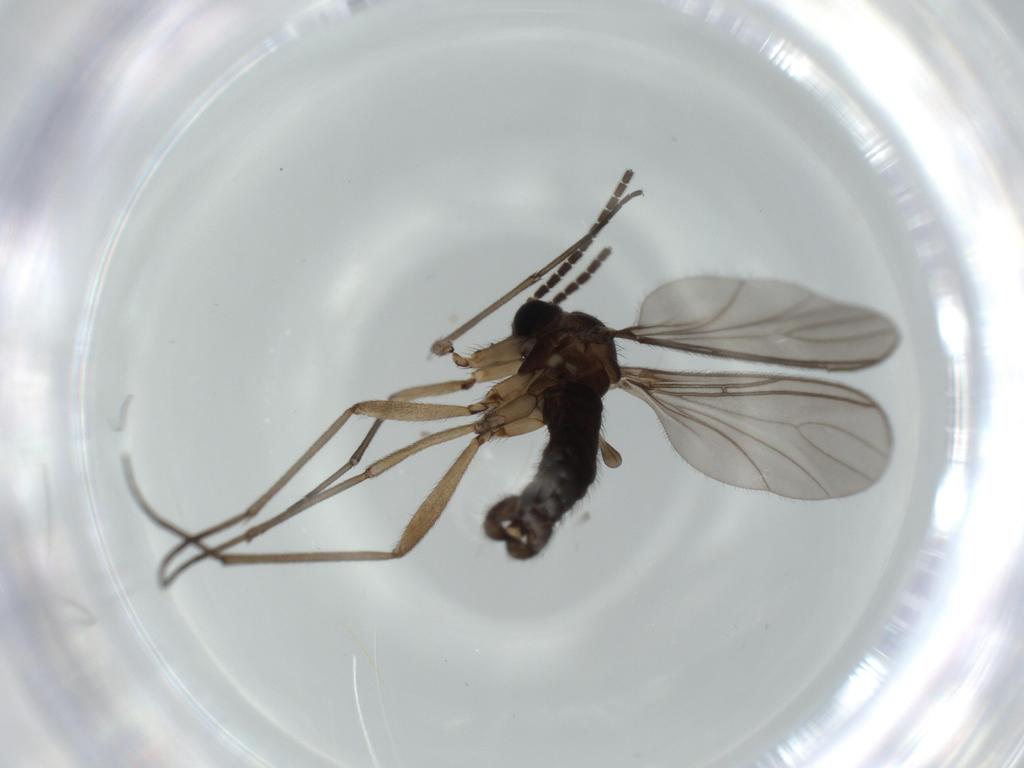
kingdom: Animalia
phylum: Arthropoda
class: Insecta
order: Diptera
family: Sciaridae
